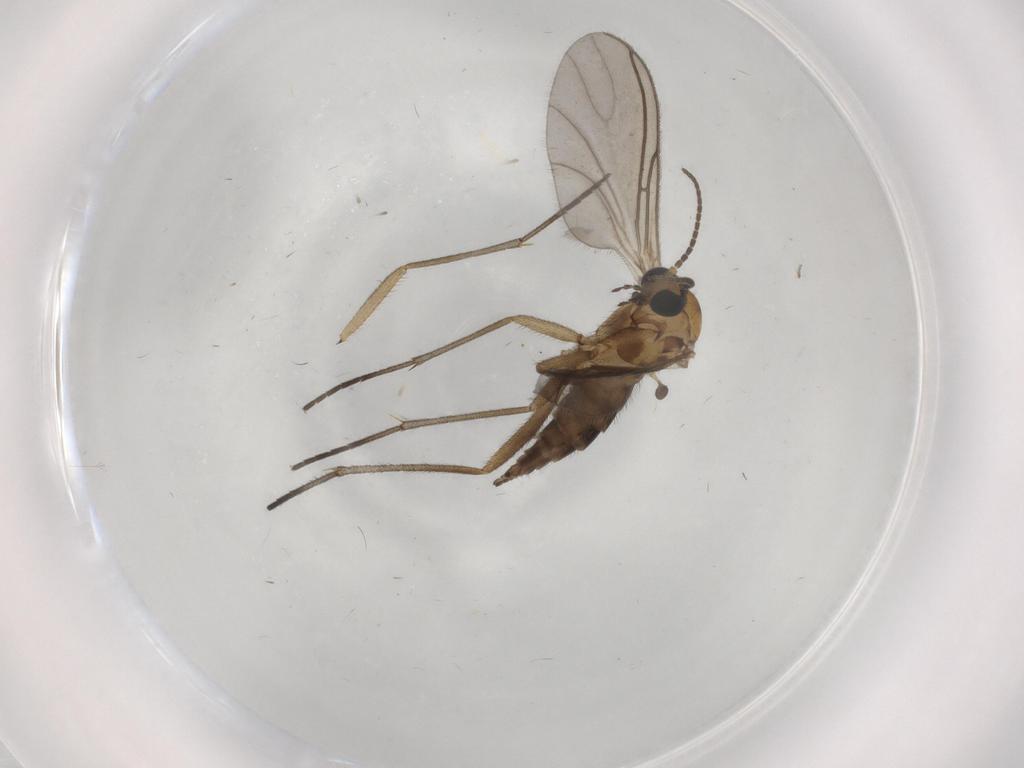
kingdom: Animalia
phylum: Arthropoda
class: Insecta
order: Diptera
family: Sciaridae
